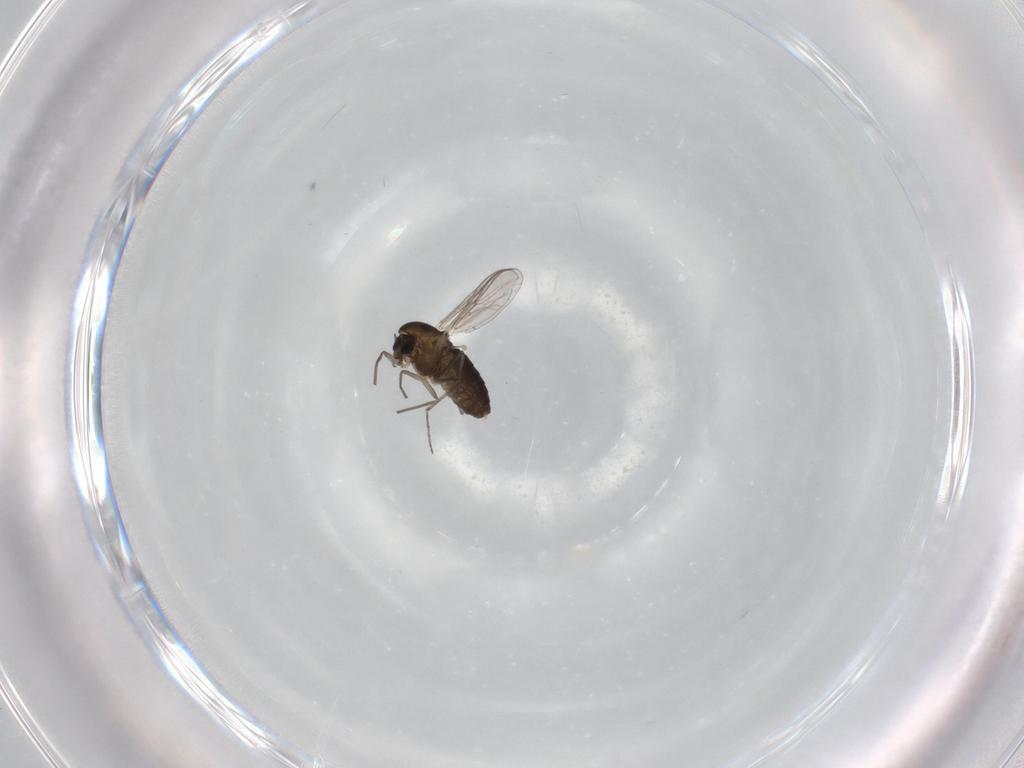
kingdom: Animalia
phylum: Arthropoda
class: Insecta
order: Diptera
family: Chironomidae
